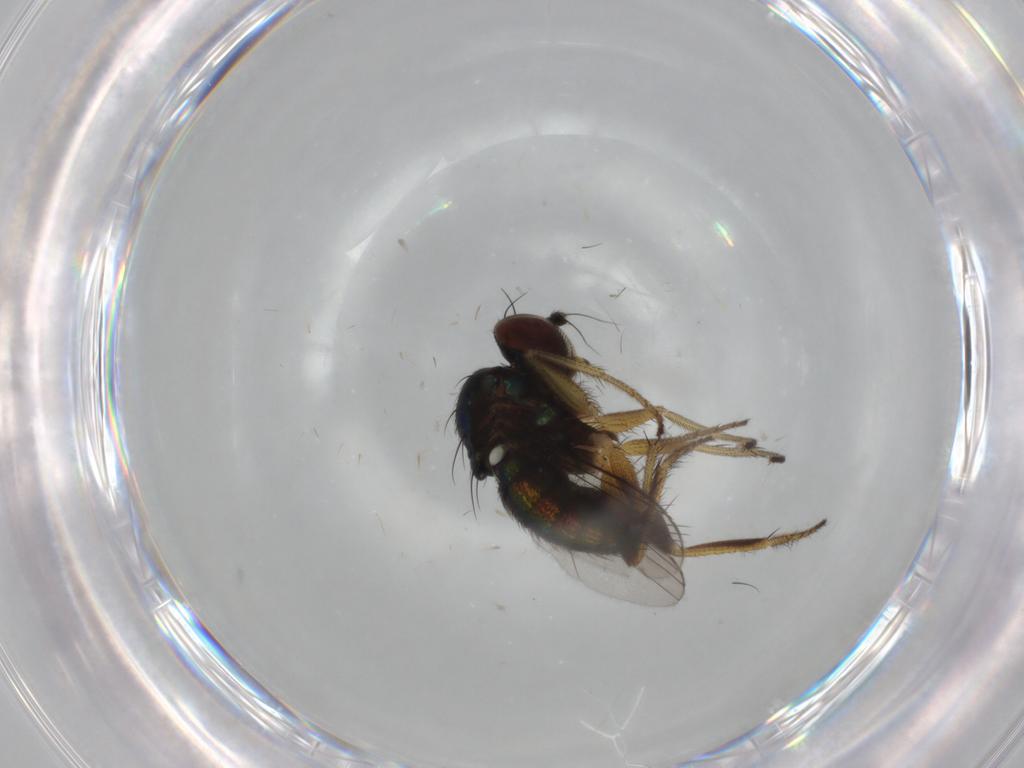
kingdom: Animalia
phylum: Arthropoda
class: Insecta
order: Diptera
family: Dolichopodidae
